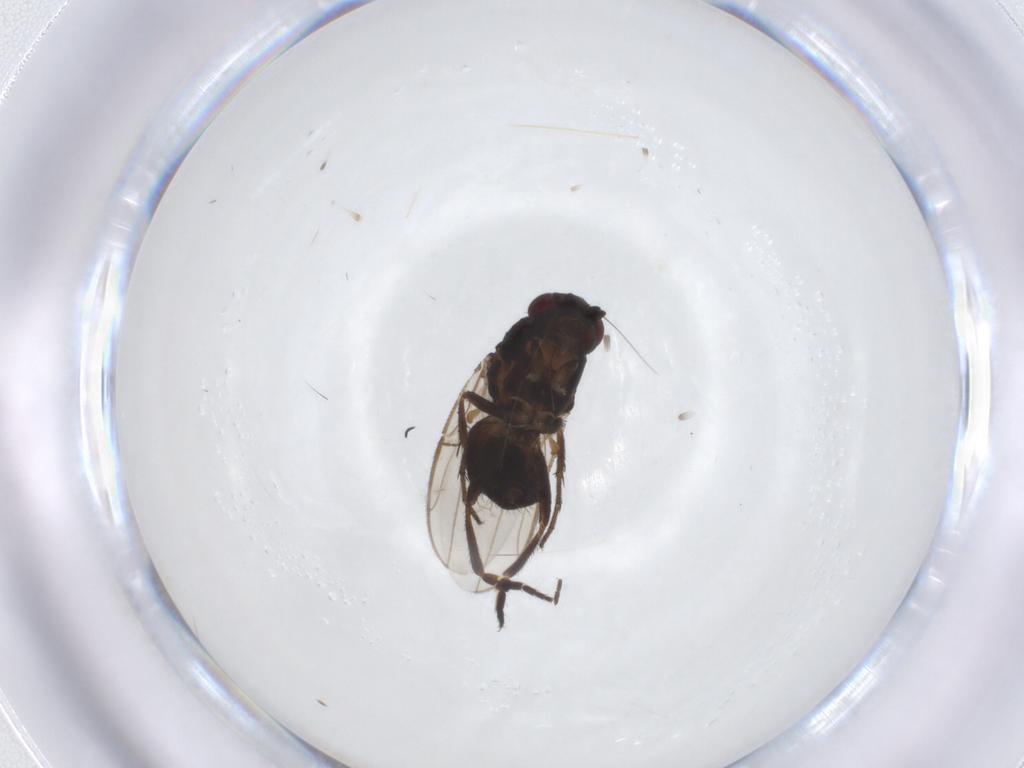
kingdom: Animalia
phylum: Arthropoda
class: Insecta
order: Diptera
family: Sphaeroceridae
